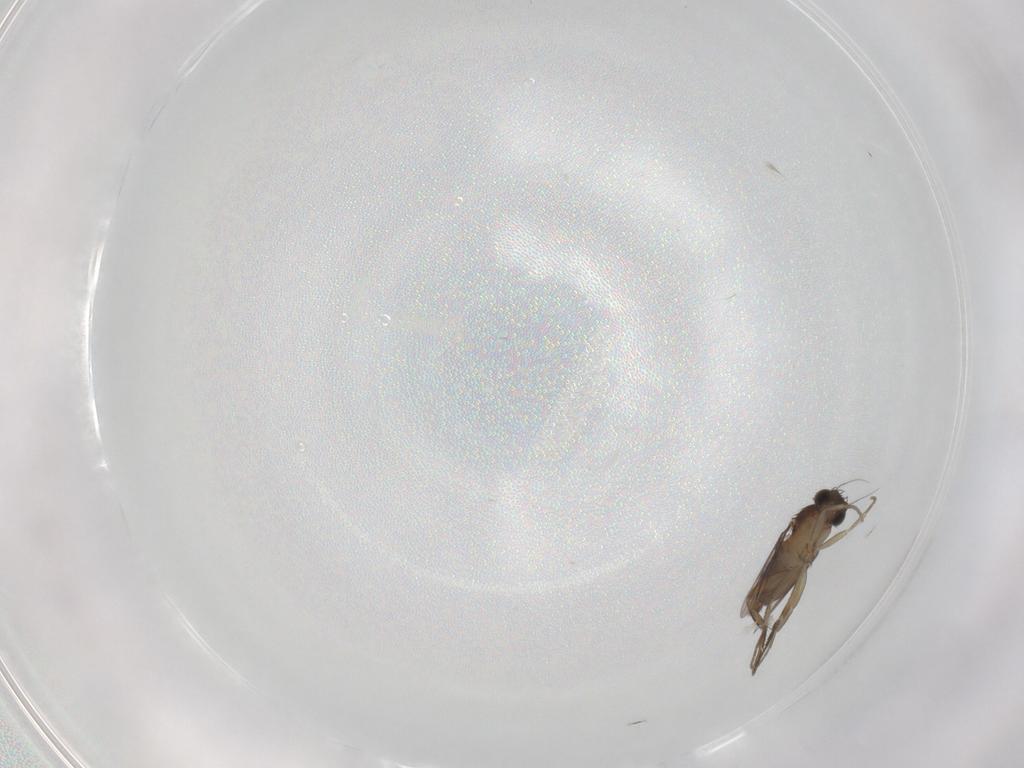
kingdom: Animalia
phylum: Arthropoda
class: Insecta
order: Diptera
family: Phoridae
